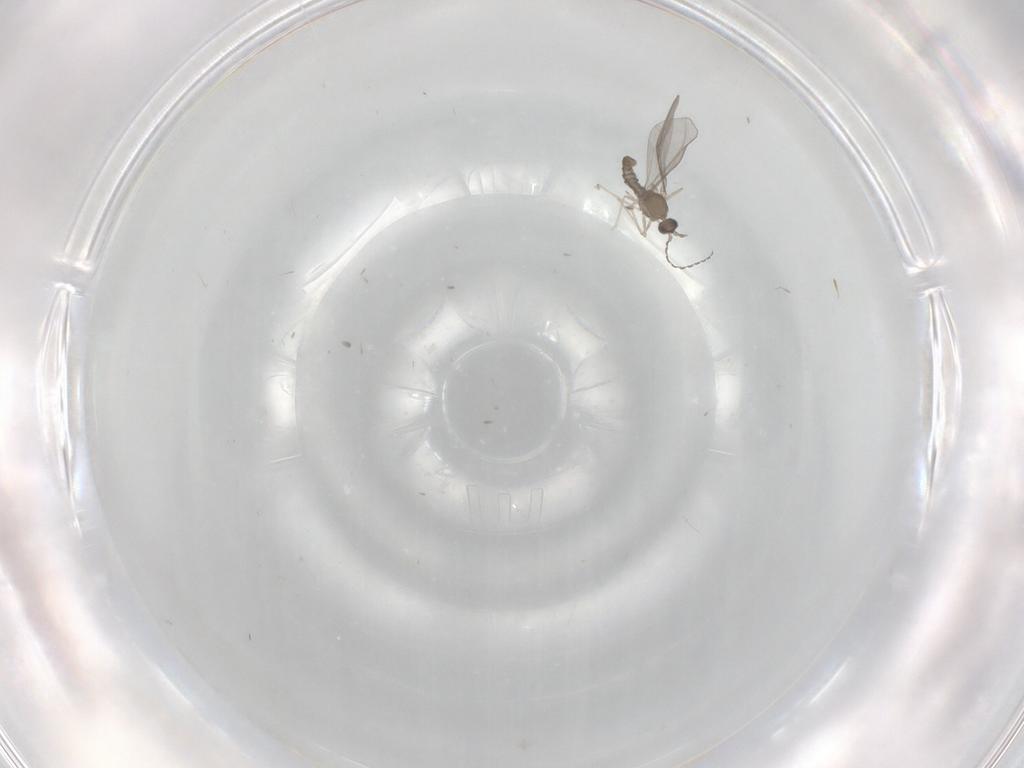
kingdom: Animalia
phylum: Arthropoda
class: Insecta
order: Diptera
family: Cecidomyiidae
